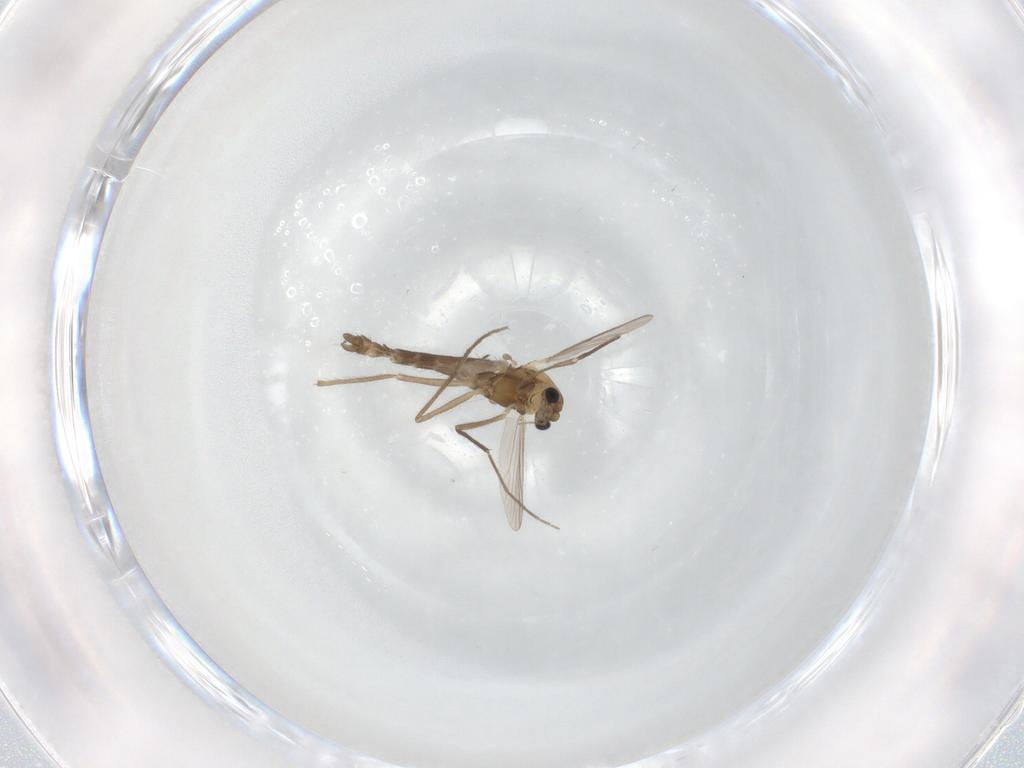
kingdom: Animalia
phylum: Arthropoda
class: Insecta
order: Diptera
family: Chironomidae
